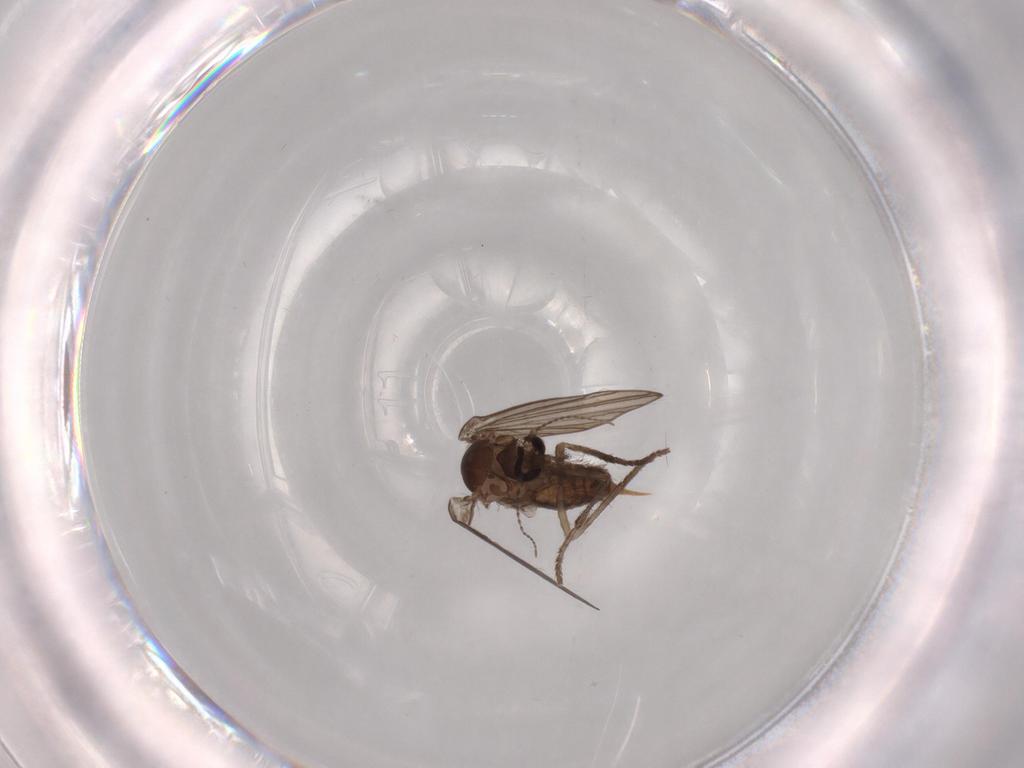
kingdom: Animalia
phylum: Arthropoda
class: Insecta
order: Diptera
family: Psychodidae
